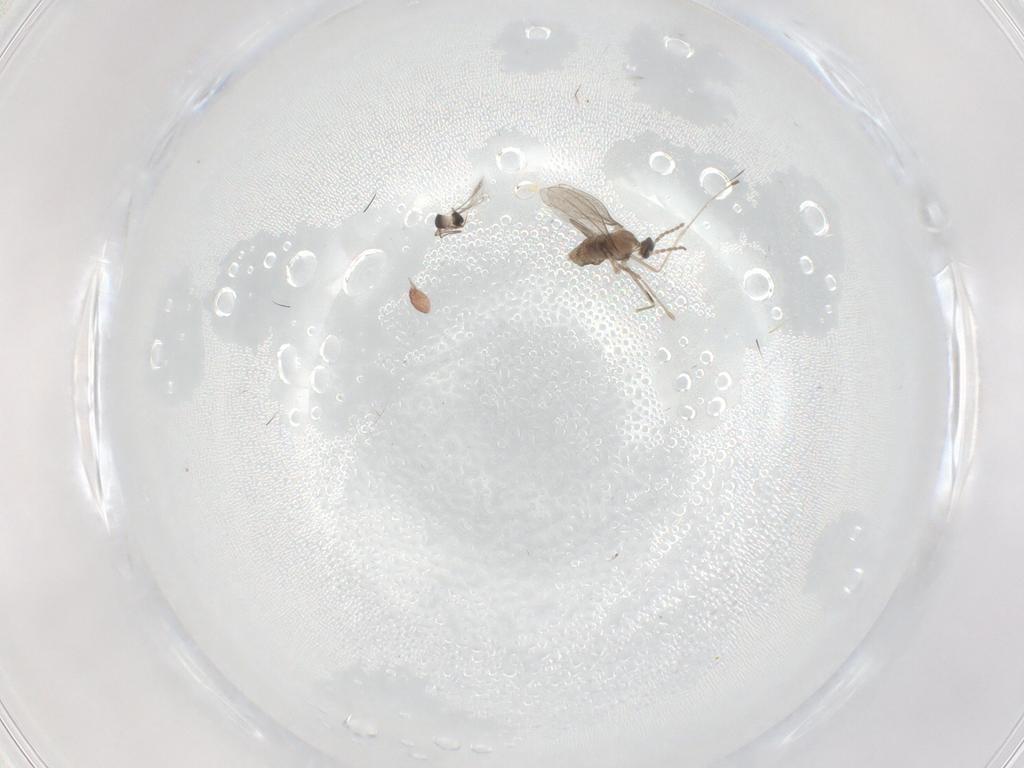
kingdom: Animalia
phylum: Arthropoda
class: Insecta
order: Hymenoptera
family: Mymaridae
